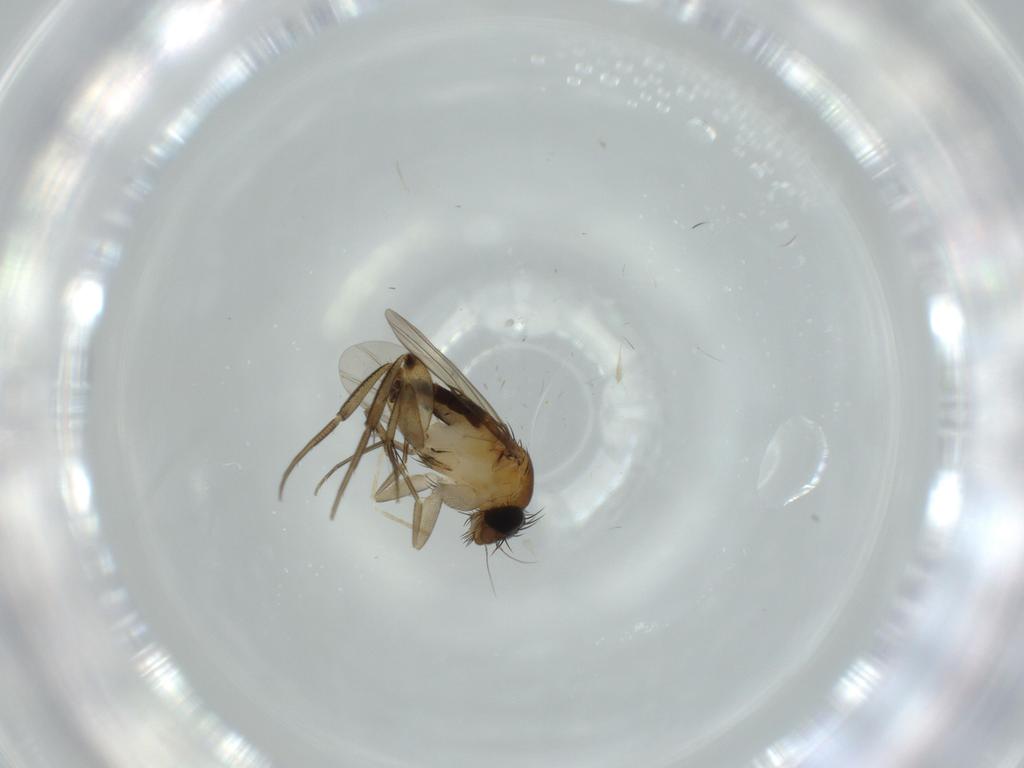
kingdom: Animalia
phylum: Arthropoda
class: Insecta
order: Diptera
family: Phoridae
